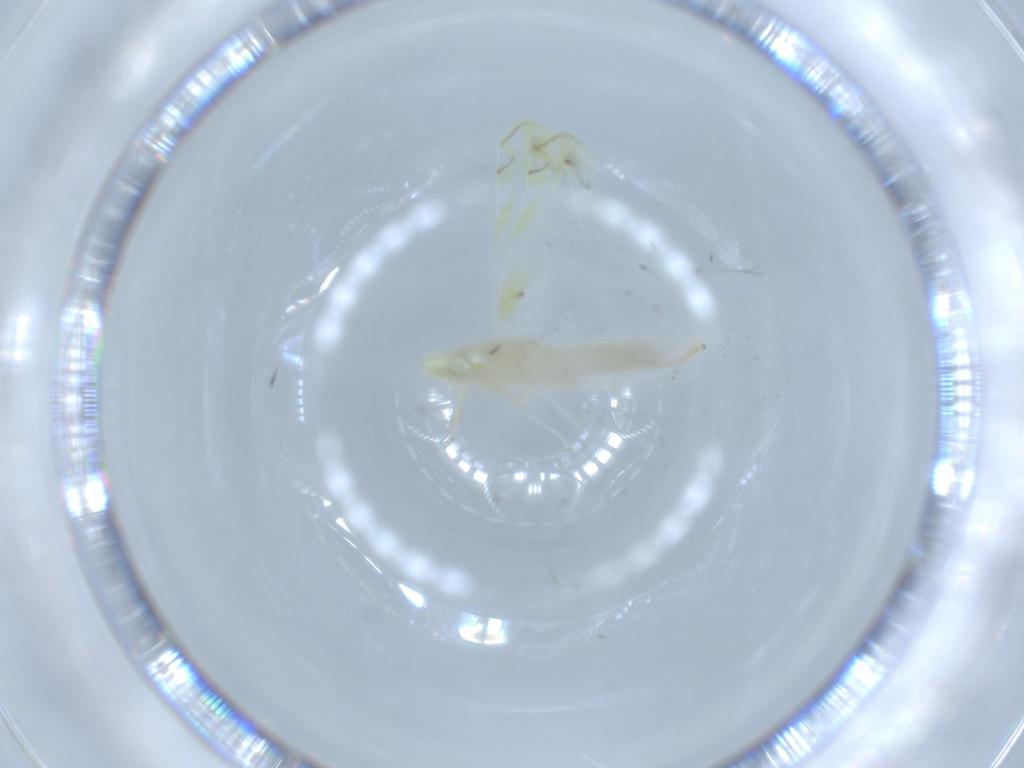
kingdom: Animalia
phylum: Arthropoda
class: Insecta
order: Hemiptera
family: Cicadellidae
